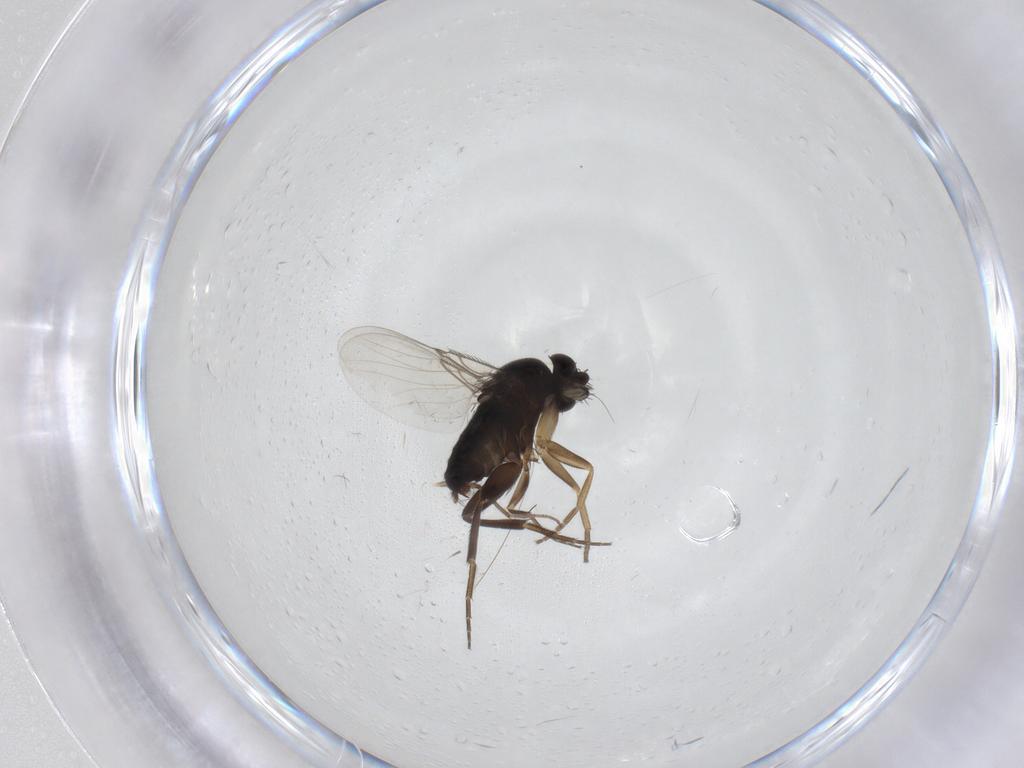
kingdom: Animalia
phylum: Arthropoda
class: Insecta
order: Diptera
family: Phoridae
